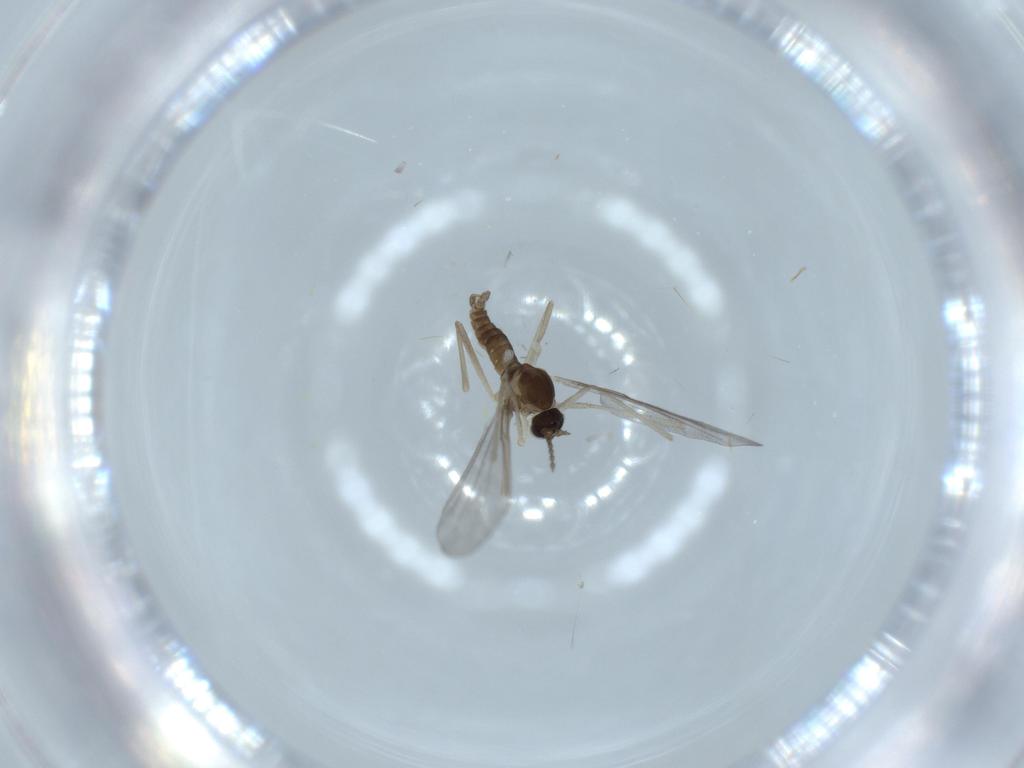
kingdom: Animalia
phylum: Arthropoda
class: Insecta
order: Diptera
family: Cecidomyiidae
